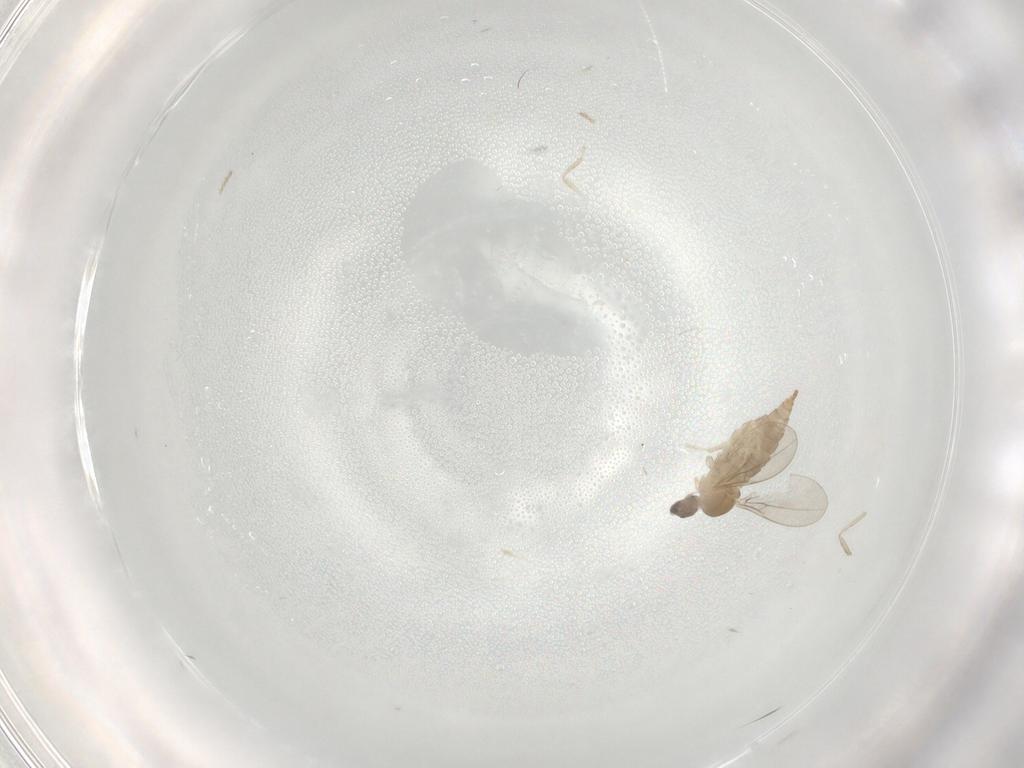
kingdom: Animalia
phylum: Arthropoda
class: Insecta
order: Diptera
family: Cecidomyiidae
